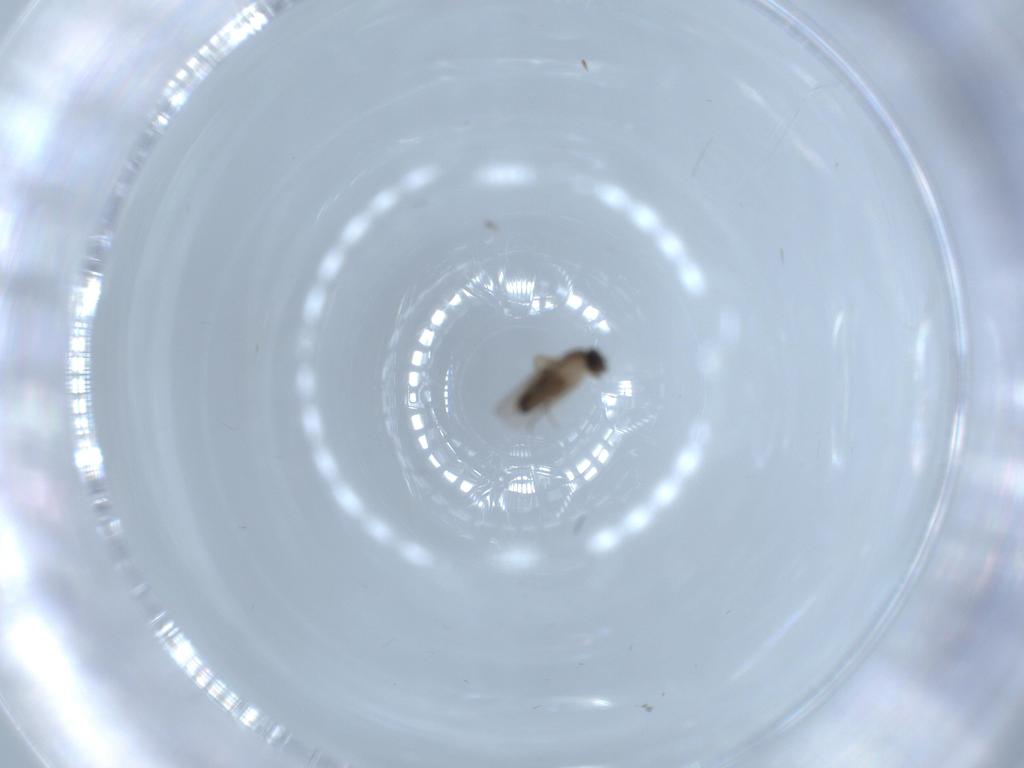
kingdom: Animalia
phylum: Arthropoda
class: Insecta
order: Diptera
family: Phoridae
